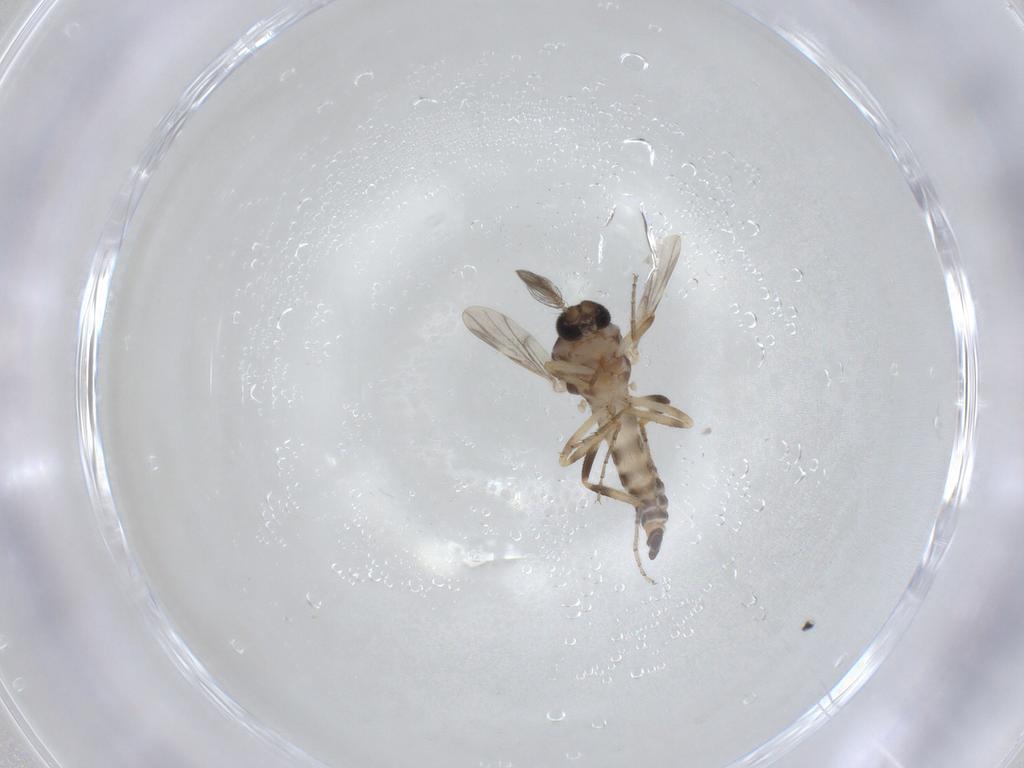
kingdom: Animalia
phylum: Arthropoda
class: Insecta
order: Diptera
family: Ceratopogonidae
